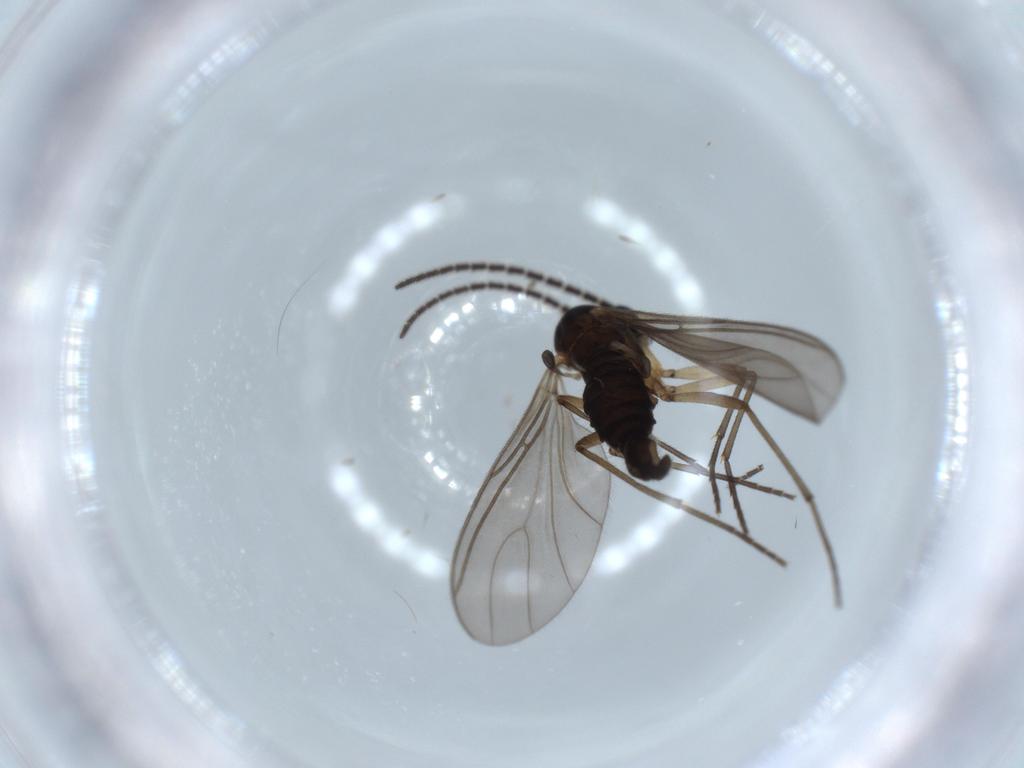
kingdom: Animalia
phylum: Arthropoda
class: Insecta
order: Diptera
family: Sciaridae
